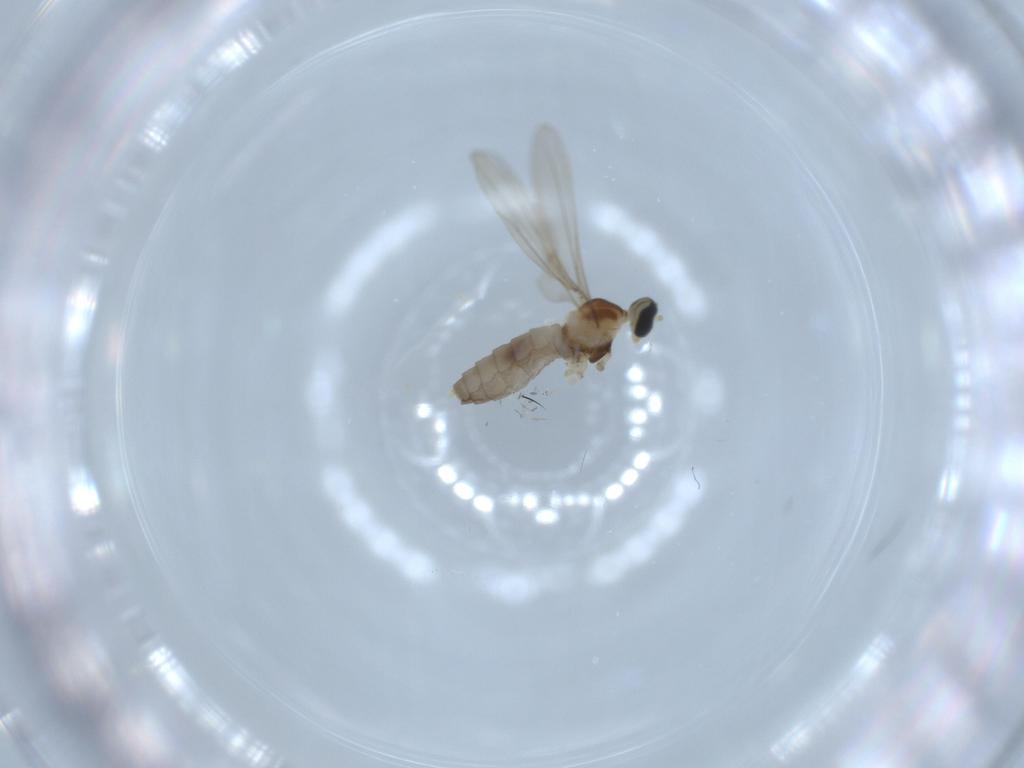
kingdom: Animalia
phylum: Arthropoda
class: Insecta
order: Diptera
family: Cecidomyiidae
